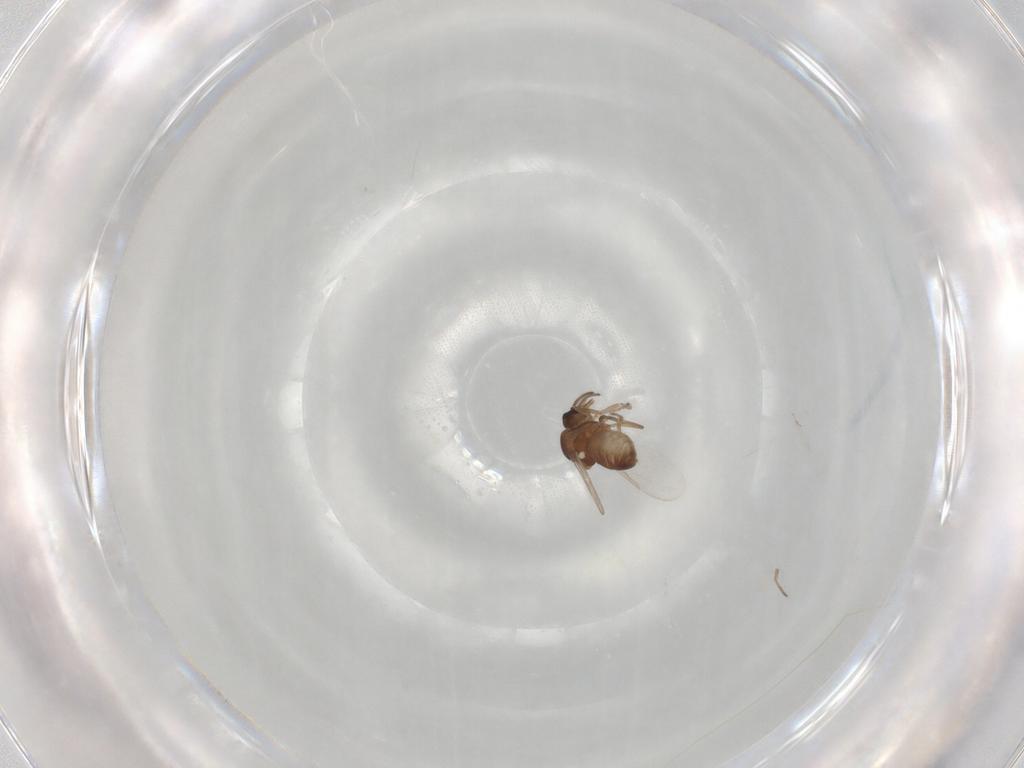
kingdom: Animalia
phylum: Arthropoda
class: Insecta
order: Diptera
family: Ceratopogonidae
